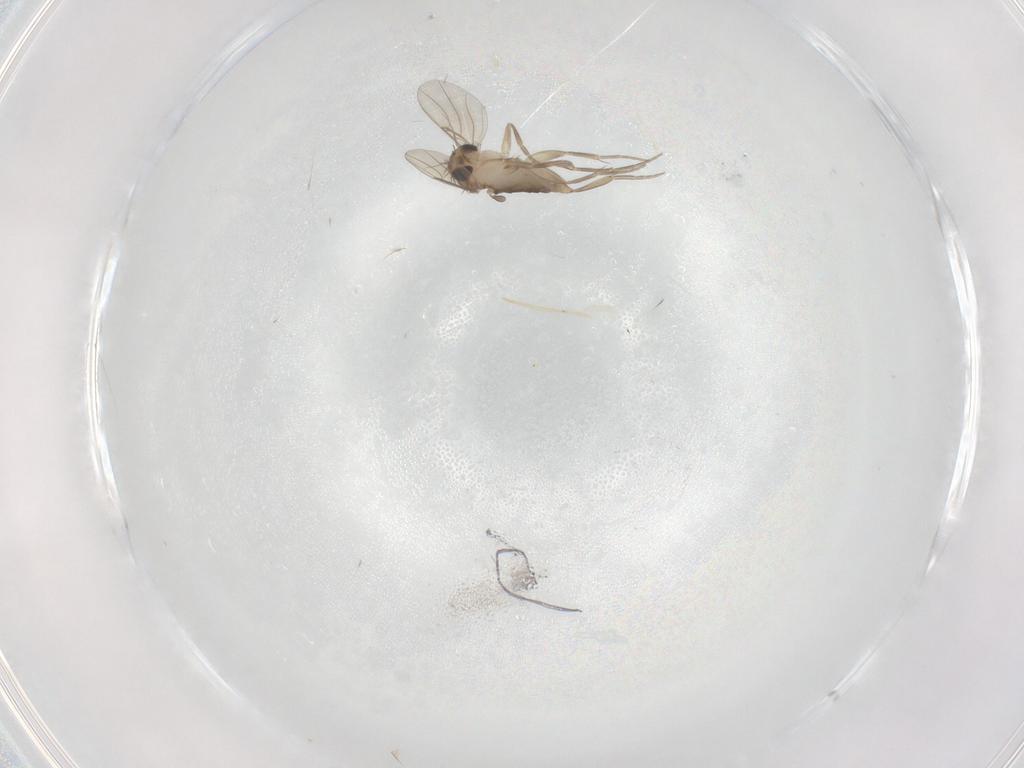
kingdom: Animalia
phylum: Arthropoda
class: Insecta
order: Diptera
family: Phoridae
